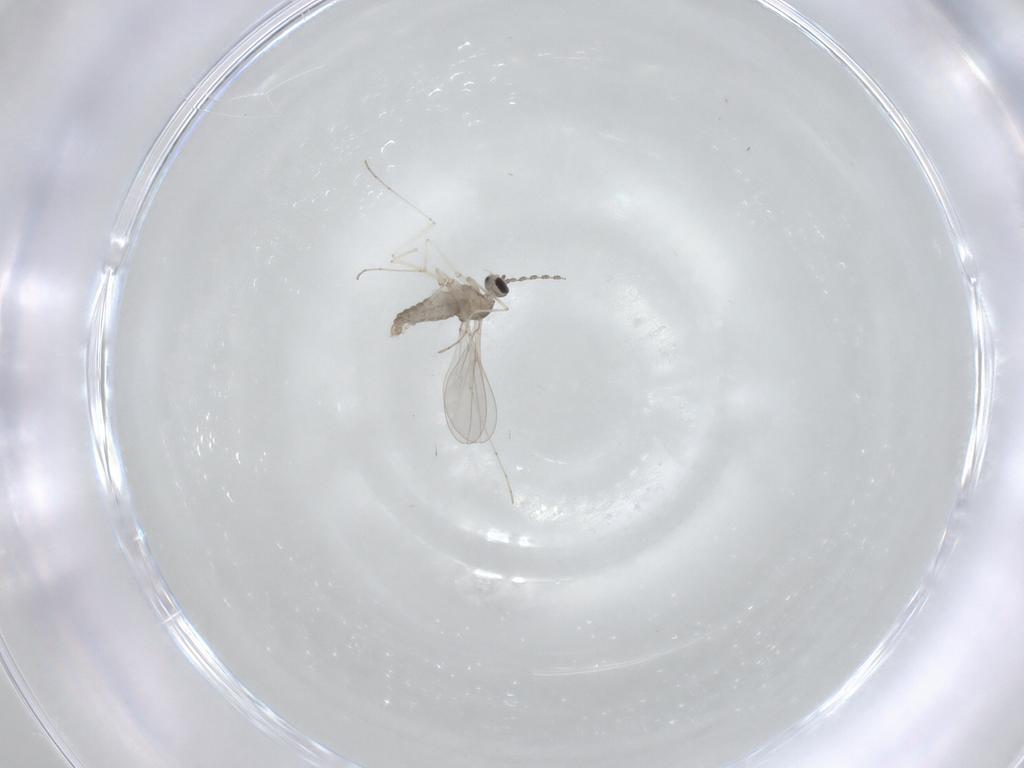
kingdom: Animalia
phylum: Arthropoda
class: Insecta
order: Diptera
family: Cecidomyiidae
